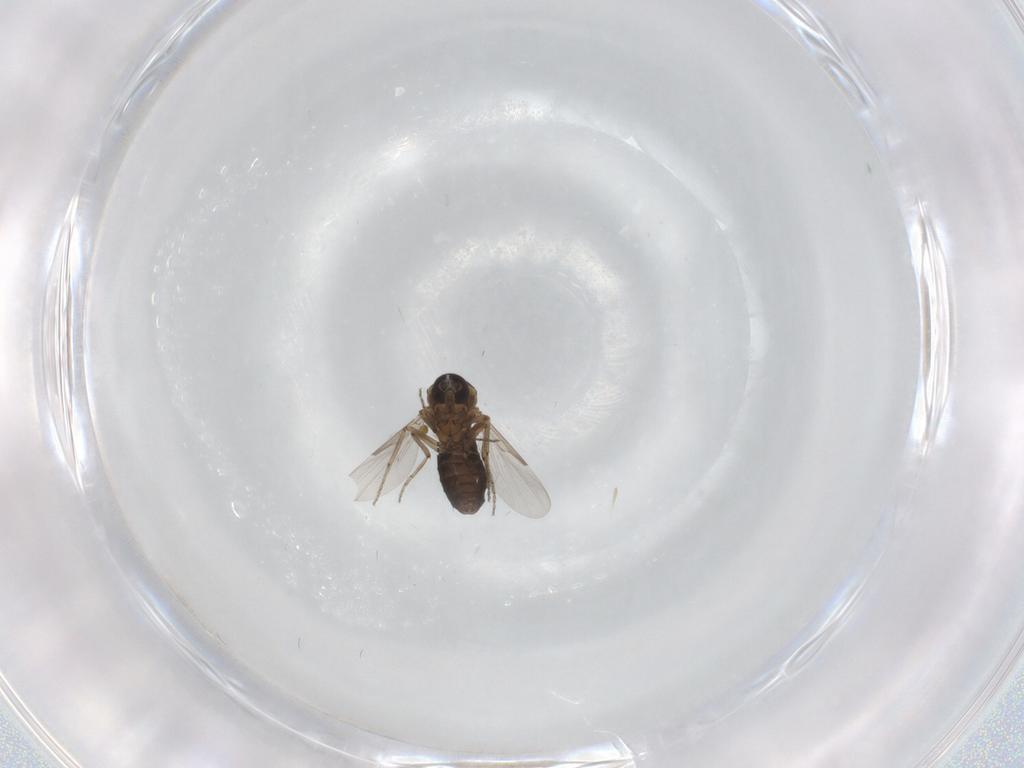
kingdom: Animalia
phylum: Arthropoda
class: Insecta
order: Diptera
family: Ceratopogonidae
